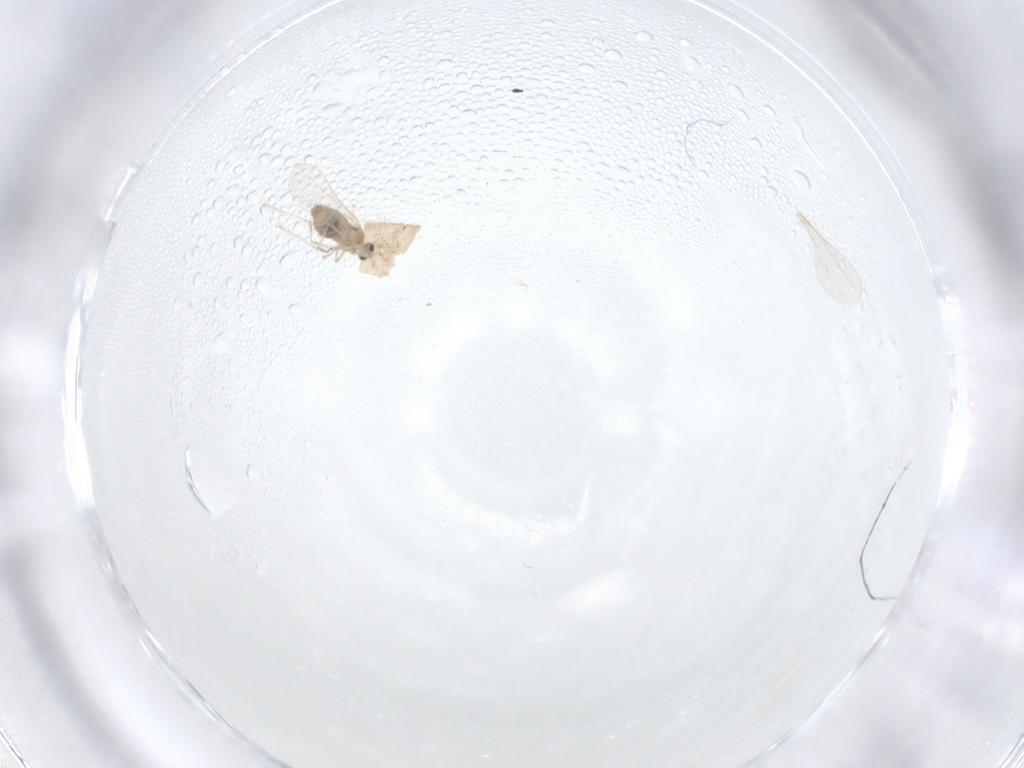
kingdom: Animalia
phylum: Arthropoda
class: Insecta
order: Diptera
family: Cecidomyiidae
